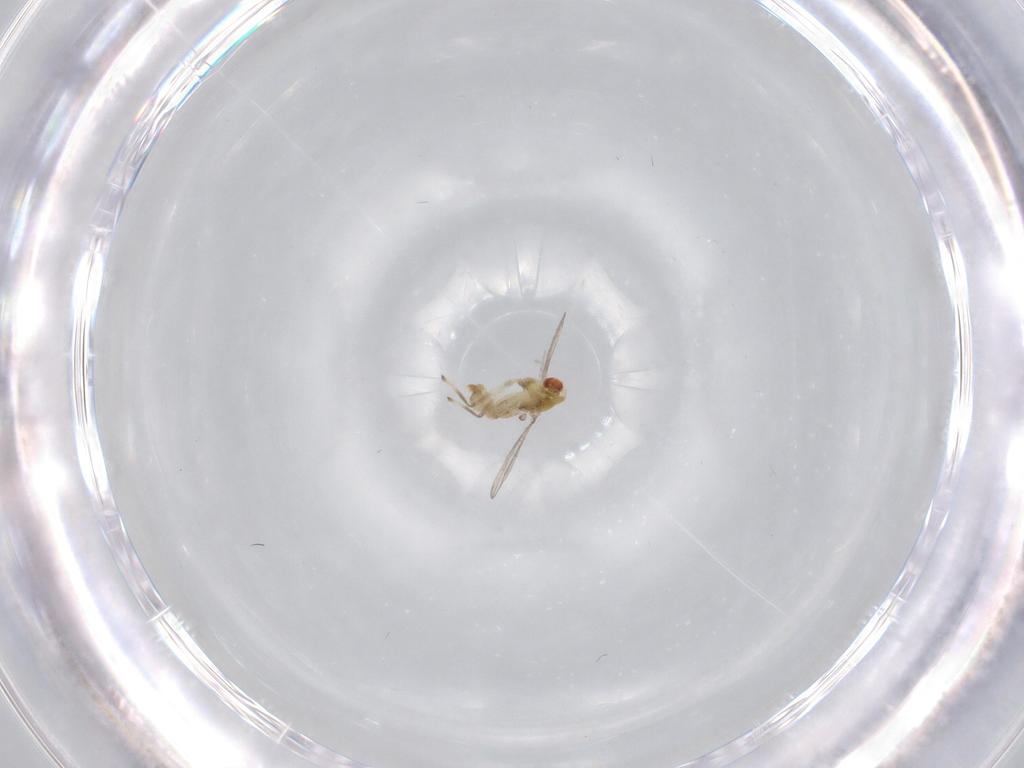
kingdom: Animalia
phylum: Arthropoda
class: Insecta
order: Diptera
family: Chironomidae
